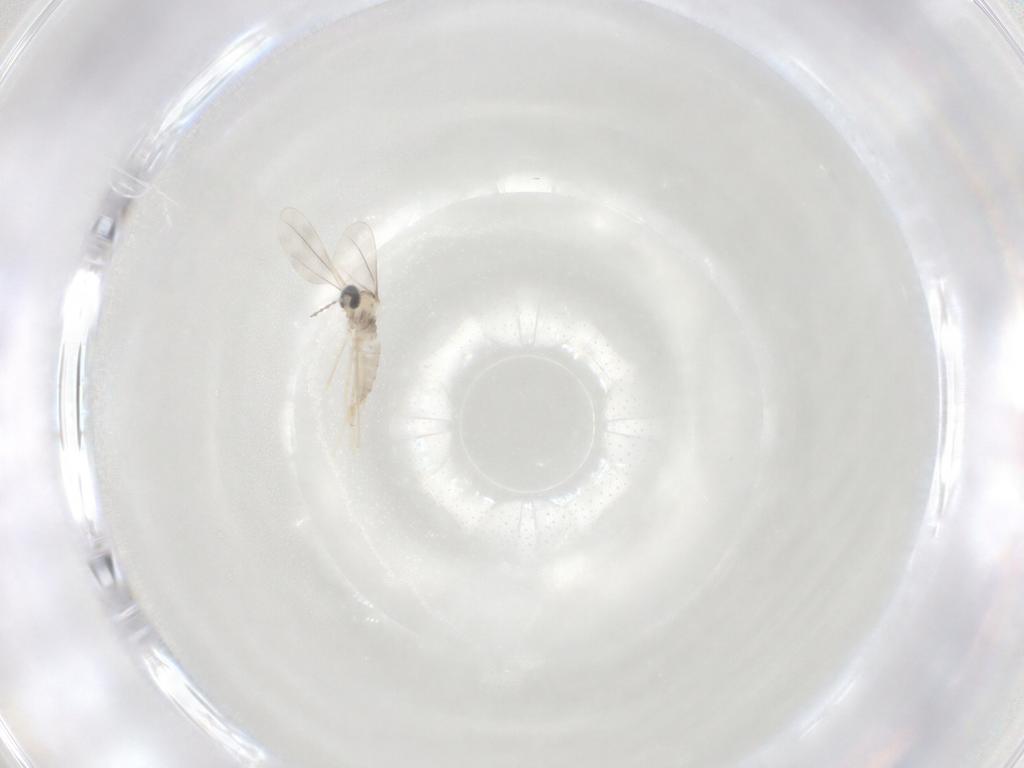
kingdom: Animalia
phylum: Arthropoda
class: Insecta
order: Diptera
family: Cecidomyiidae
